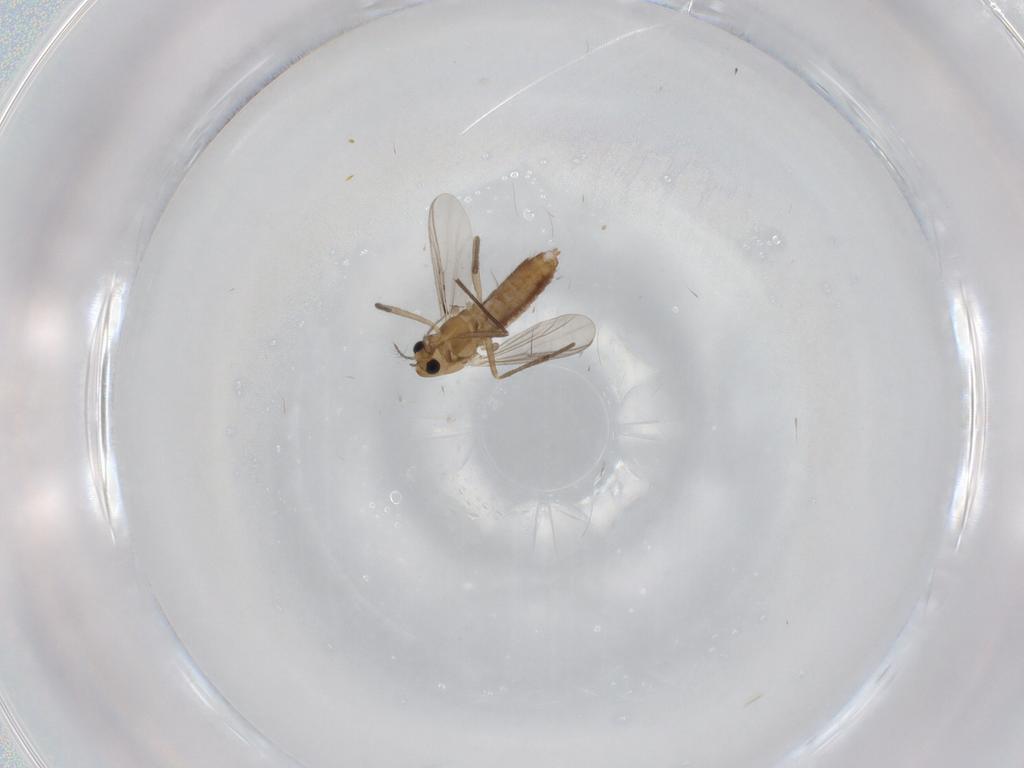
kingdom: Animalia
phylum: Arthropoda
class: Insecta
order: Diptera
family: Chironomidae
